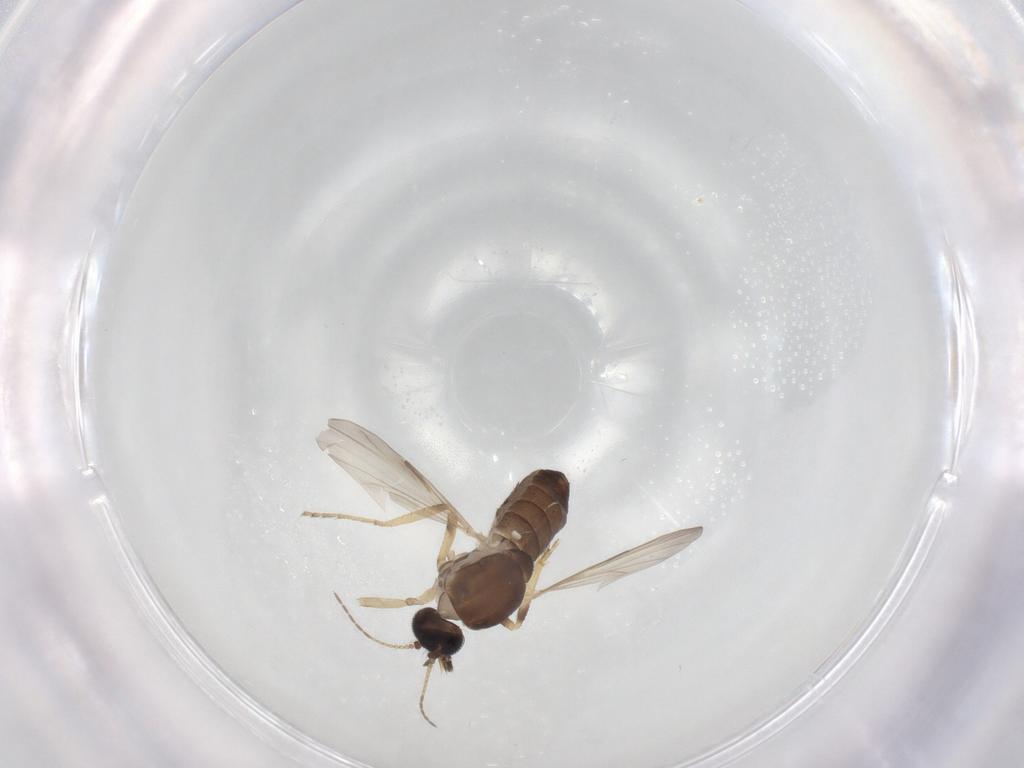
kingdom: Animalia
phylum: Arthropoda
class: Insecta
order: Diptera
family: Ceratopogonidae
